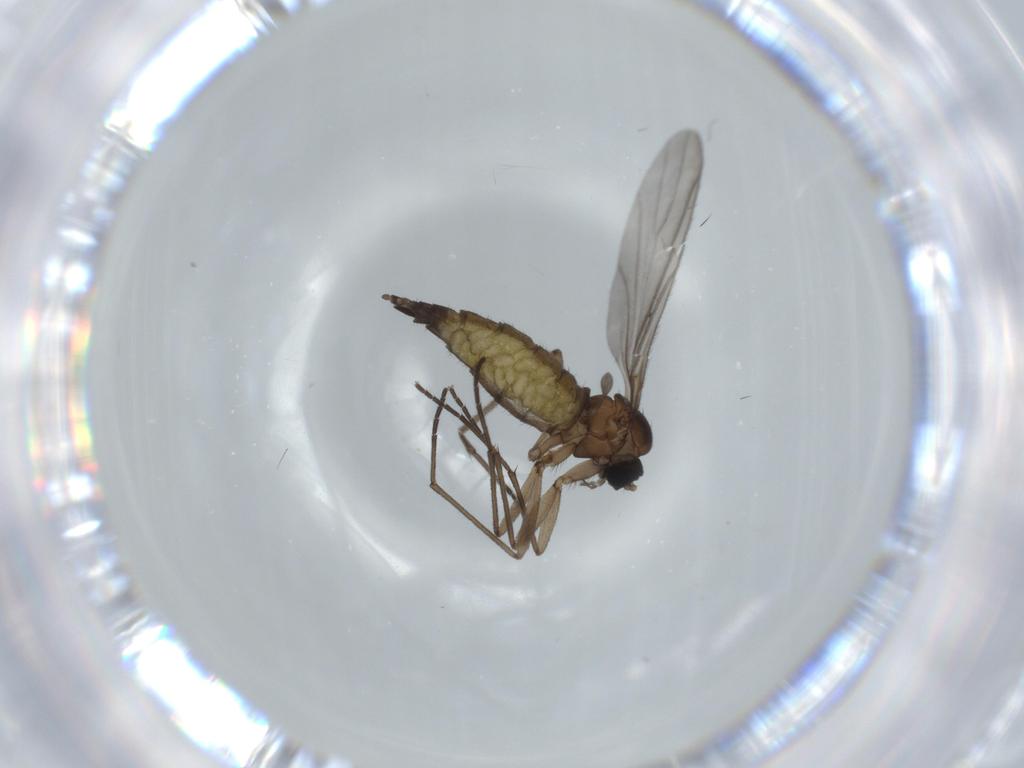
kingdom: Animalia
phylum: Arthropoda
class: Insecta
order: Diptera
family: Sciaridae
